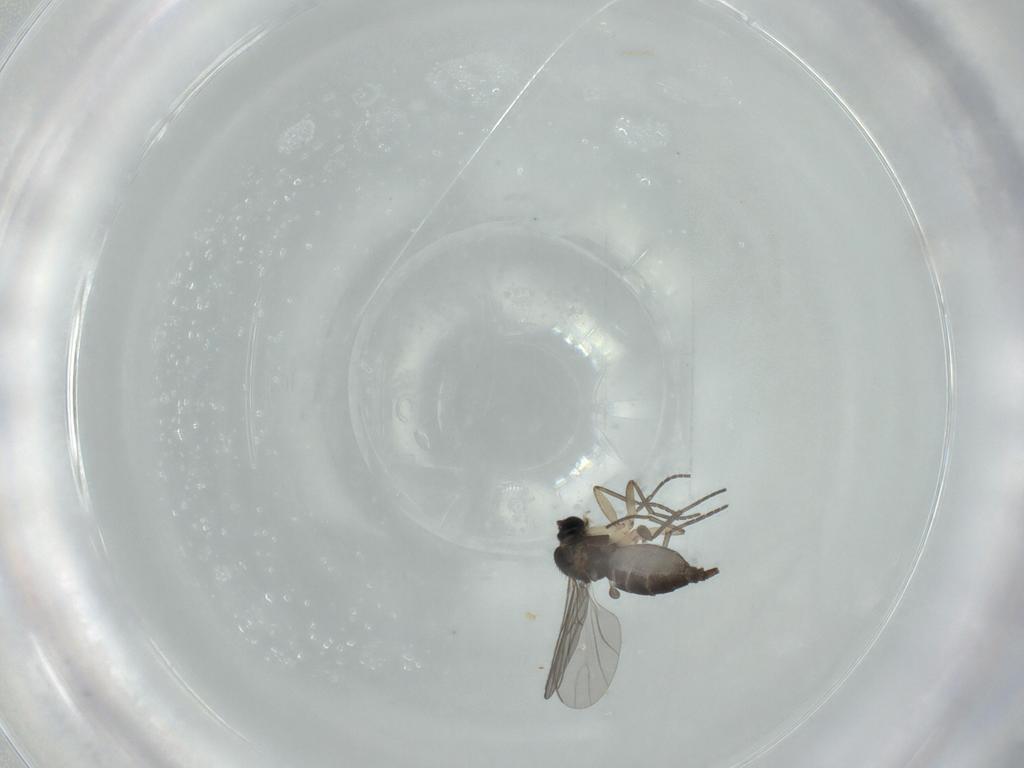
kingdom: Animalia
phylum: Arthropoda
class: Insecta
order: Diptera
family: Sciaridae
